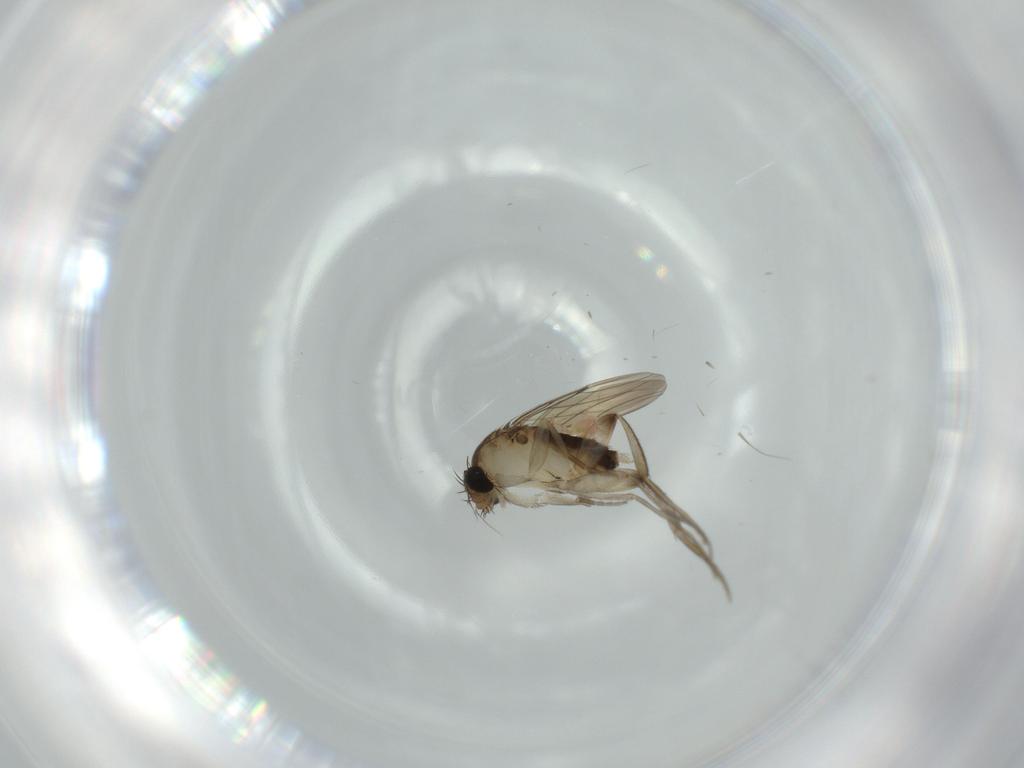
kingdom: Animalia
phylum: Arthropoda
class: Insecta
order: Diptera
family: Phoridae
